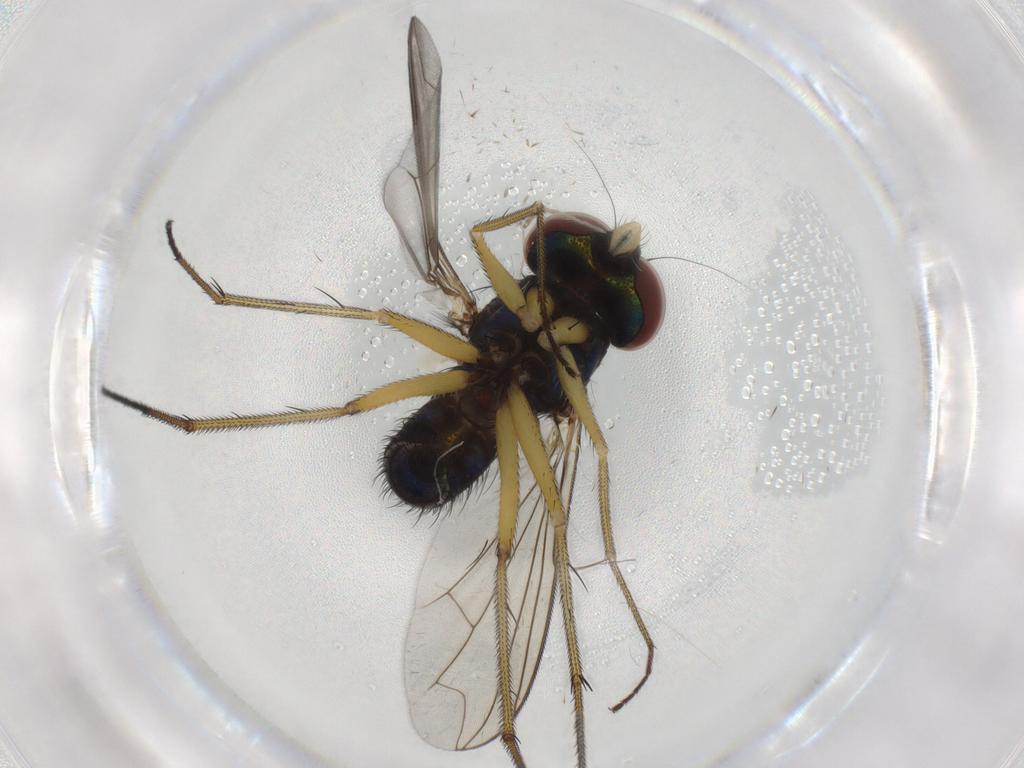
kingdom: Animalia
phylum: Arthropoda
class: Insecta
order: Diptera
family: Dolichopodidae
